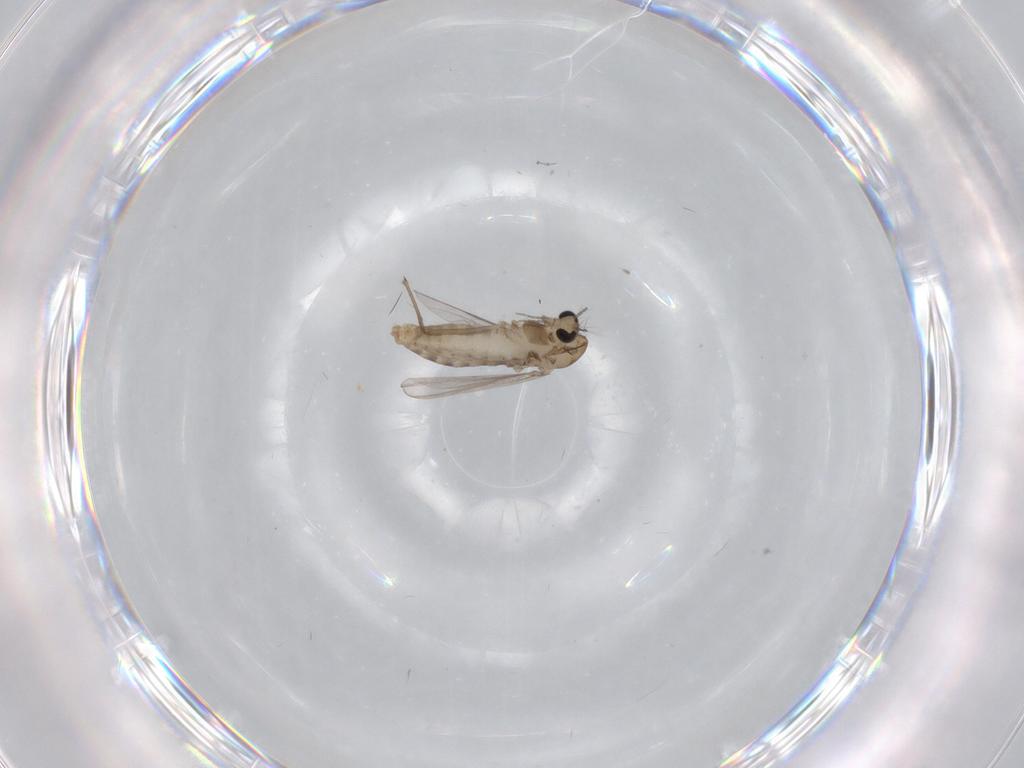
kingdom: Animalia
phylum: Arthropoda
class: Insecta
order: Diptera
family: Chironomidae
